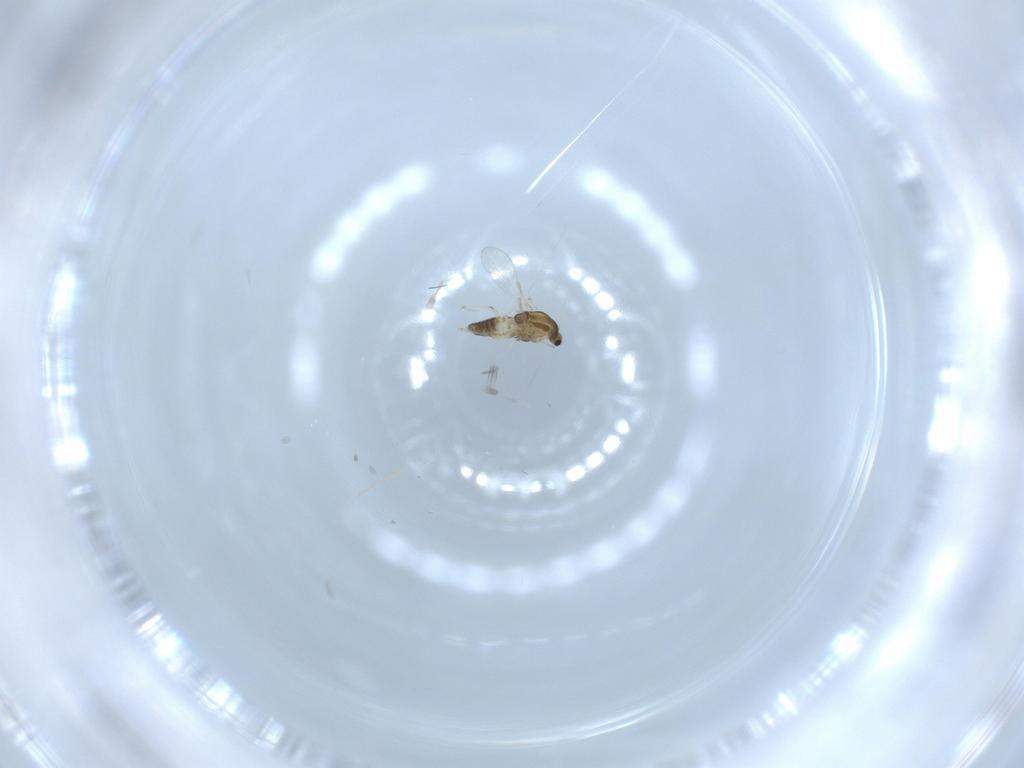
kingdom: Animalia
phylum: Arthropoda
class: Insecta
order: Diptera
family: Chironomidae
